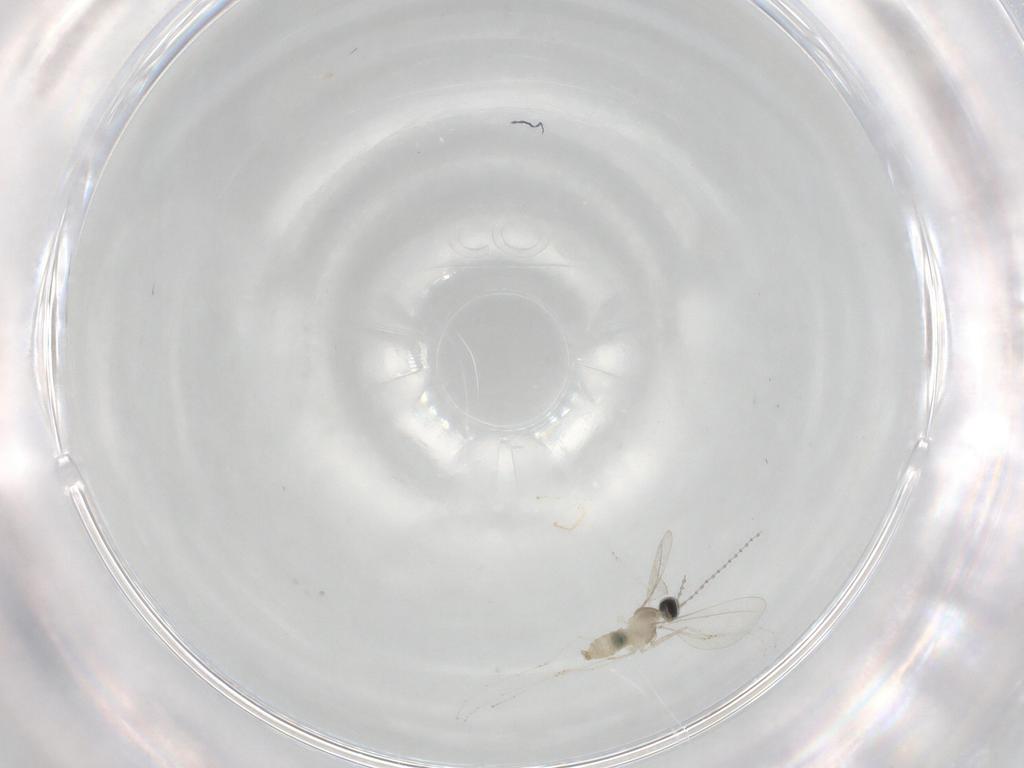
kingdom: Animalia
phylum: Arthropoda
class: Insecta
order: Diptera
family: Cecidomyiidae
